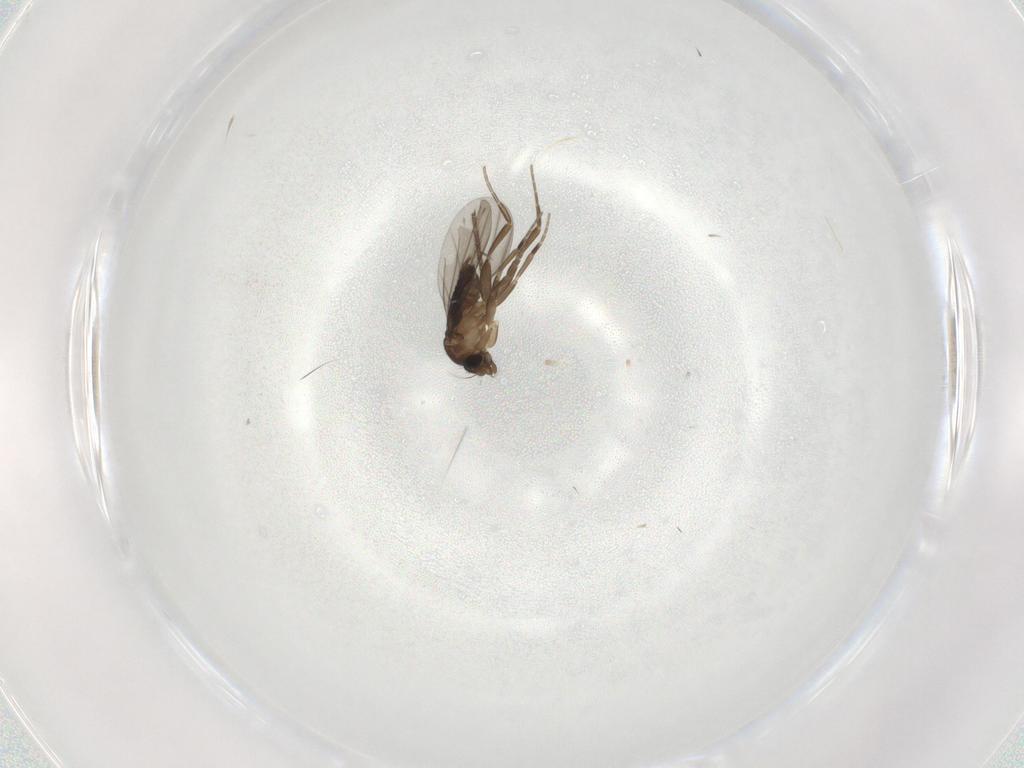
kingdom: Animalia
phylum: Arthropoda
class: Insecta
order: Diptera
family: Phoridae
